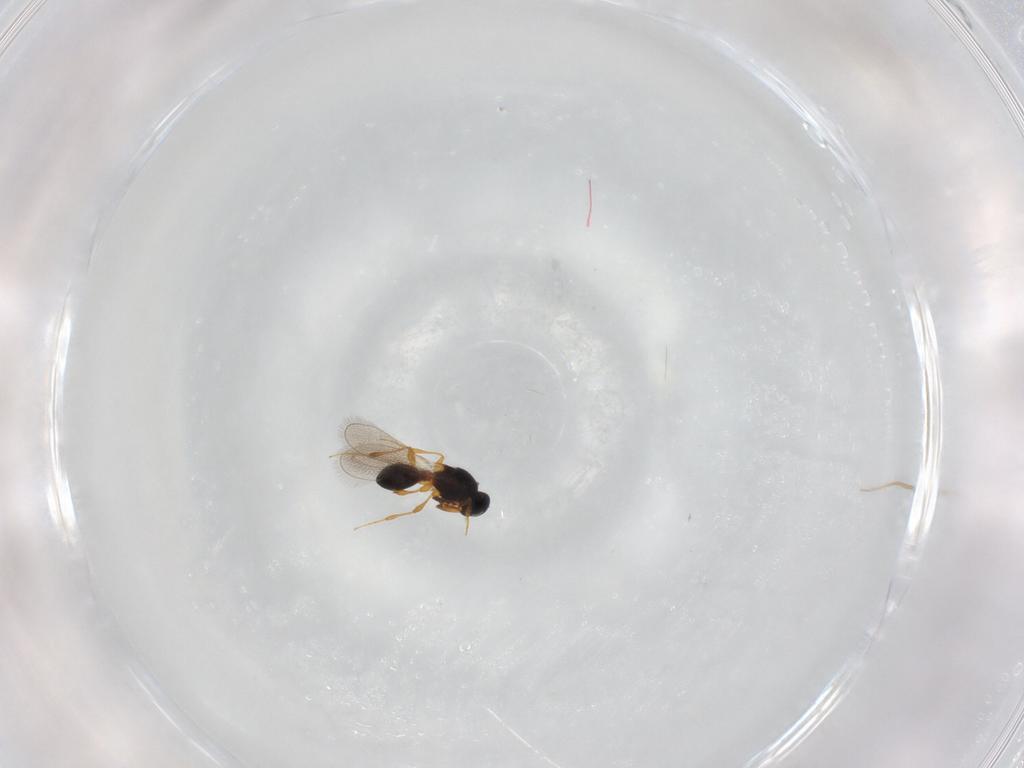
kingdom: Animalia
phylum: Arthropoda
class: Insecta
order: Hymenoptera
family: Platygastridae
